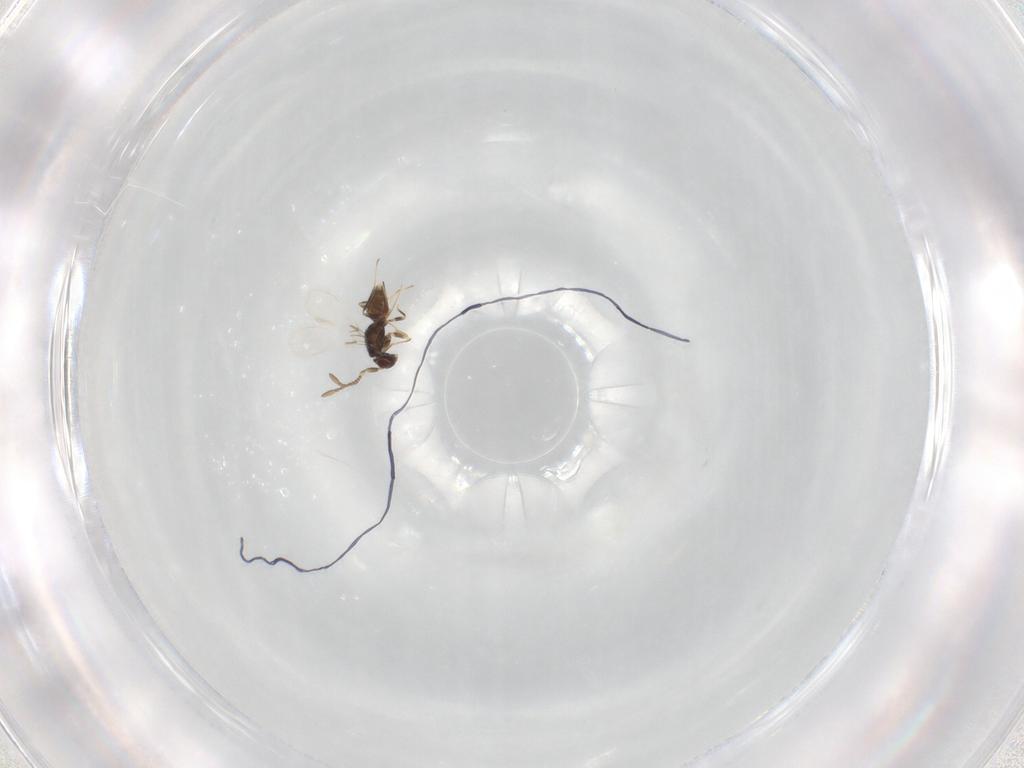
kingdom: Animalia
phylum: Arthropoda
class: Insecta
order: Hymenoptera
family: Mymaridae
